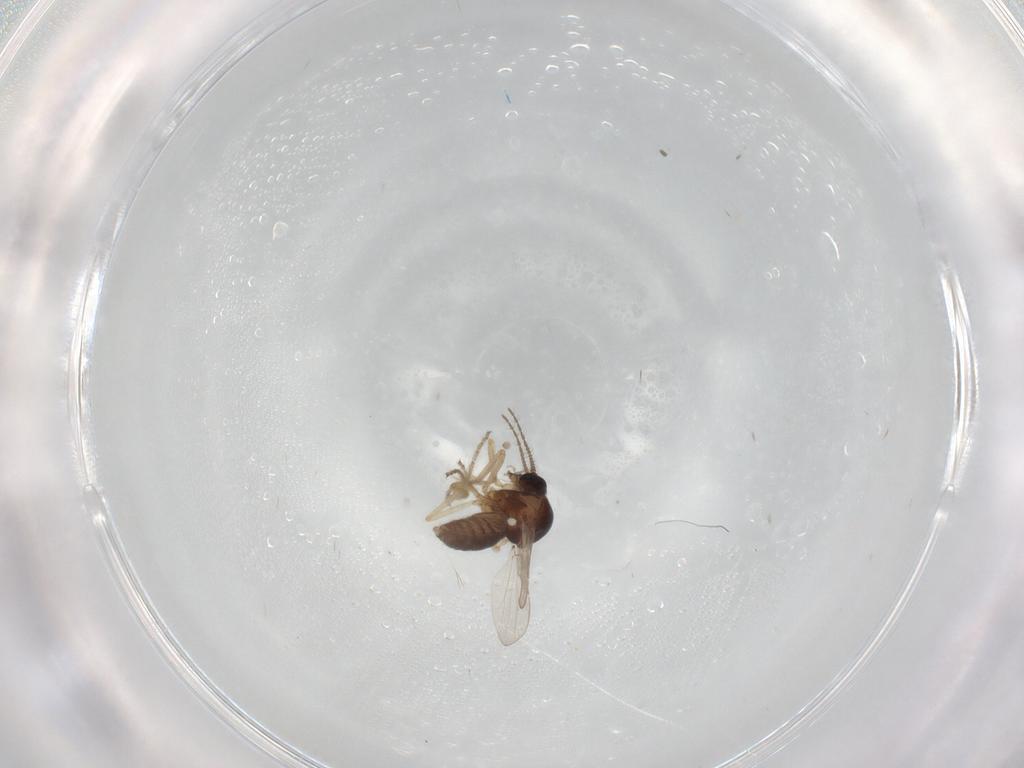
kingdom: Animalia
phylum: Arthropoda
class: Insecta
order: Diptera
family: Ceratopogonidae
